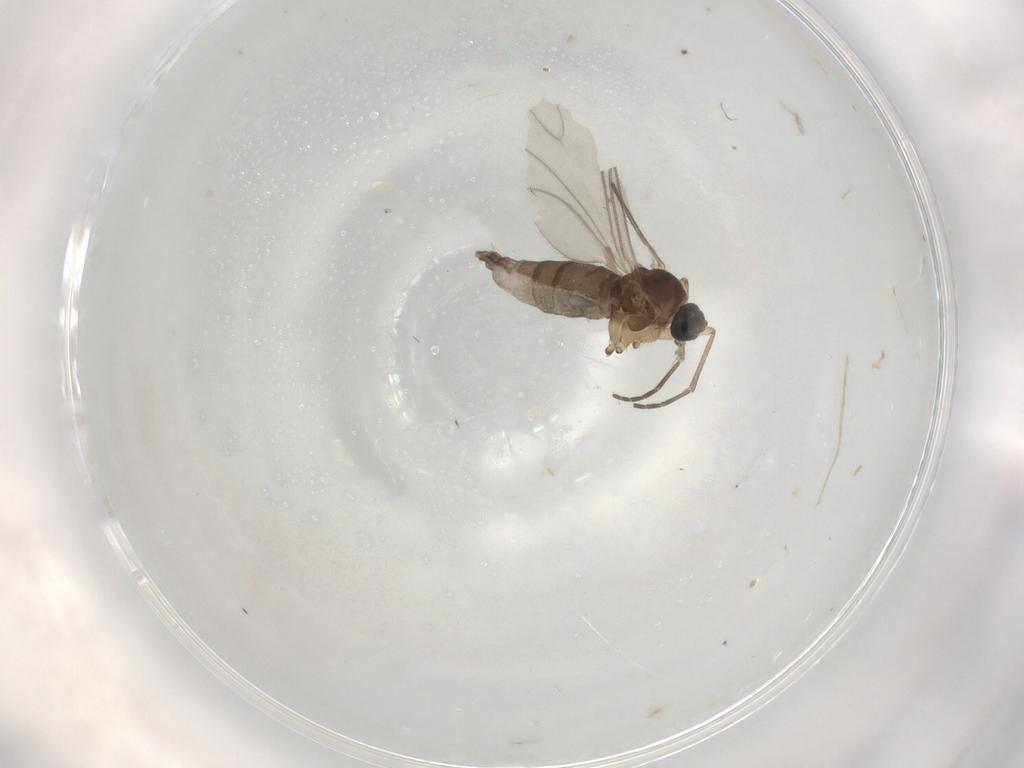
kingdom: Animalia
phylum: Arthropoda
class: Insecta
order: Diptera
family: Sciaridae
